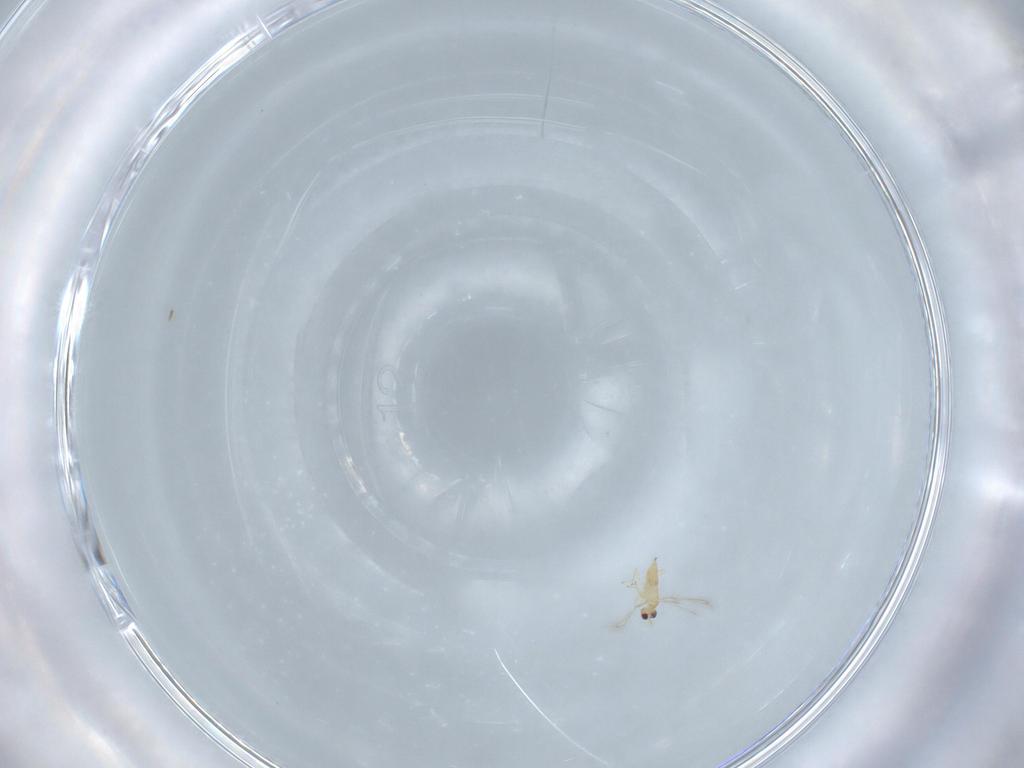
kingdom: Animalia
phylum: Arthropoda
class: Insecta
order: Hymenoptera
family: Mymaridae
